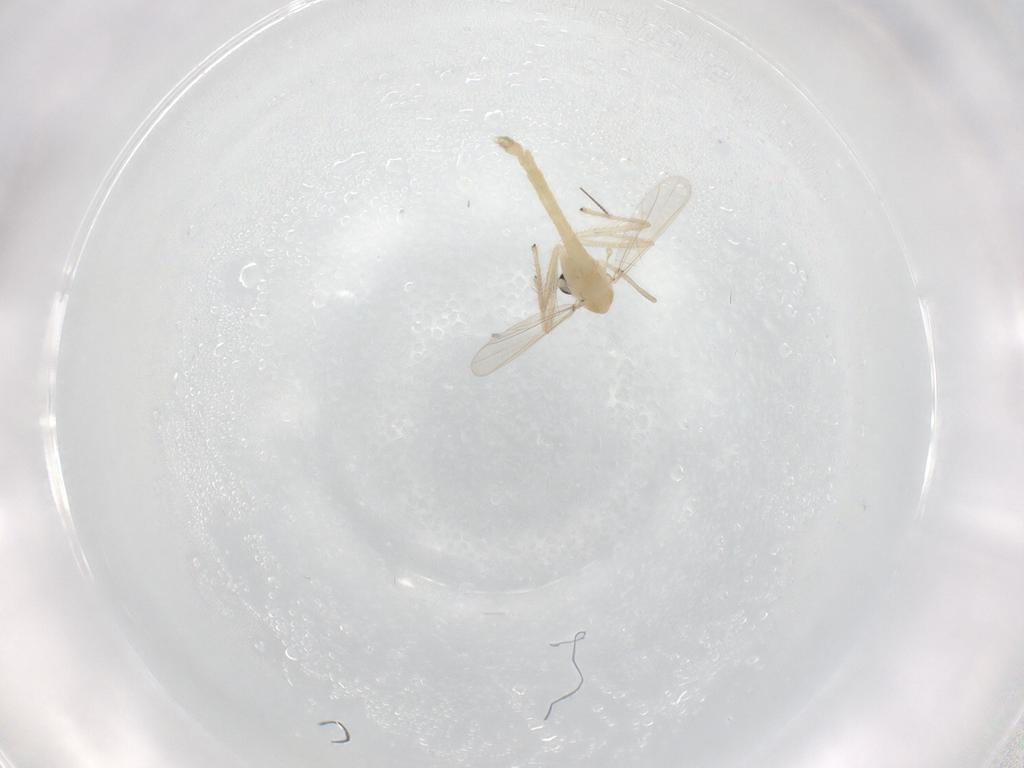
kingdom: Animalia
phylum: Arthropoda
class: Insecta
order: Diptera
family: Chironomidae
